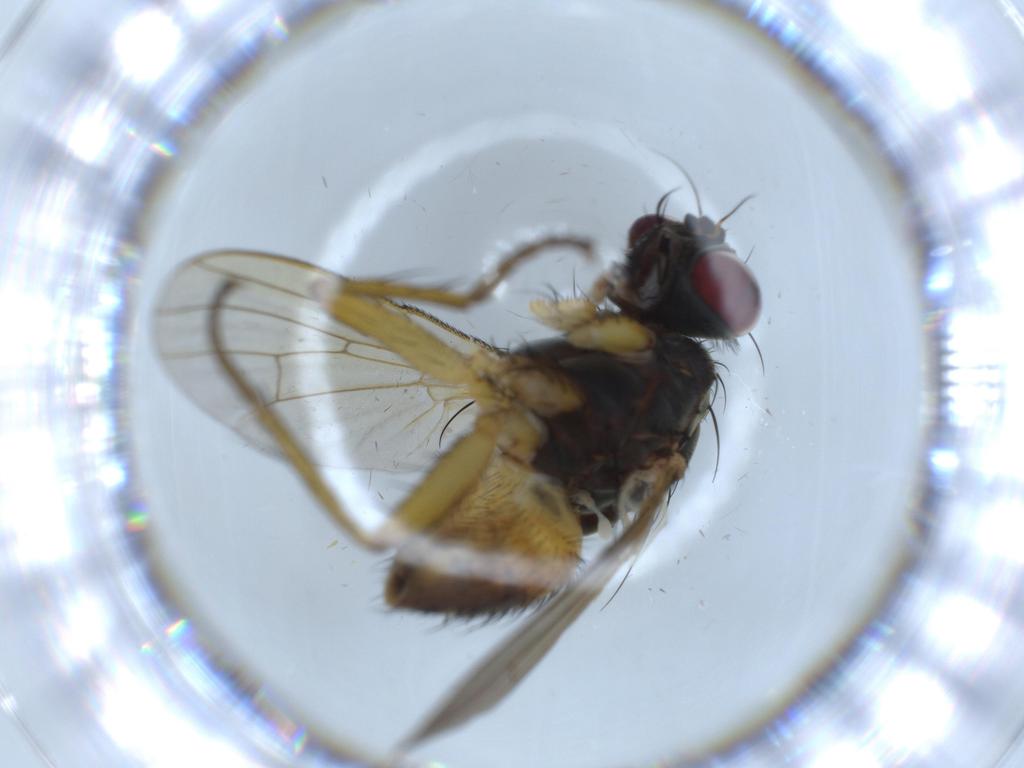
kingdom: Animalia
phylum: Arthropoda
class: Insecta
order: Diptera
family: Muscidae
